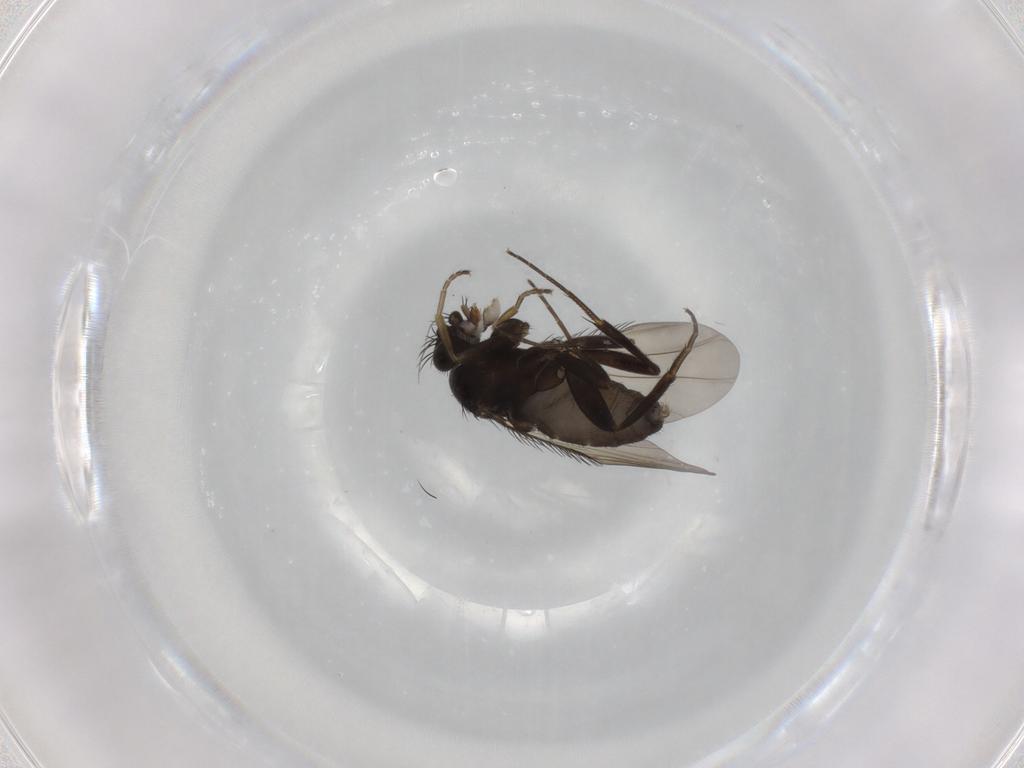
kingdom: Animalia
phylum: Arthropoda
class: Insecta
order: Diptera
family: Phoridae
